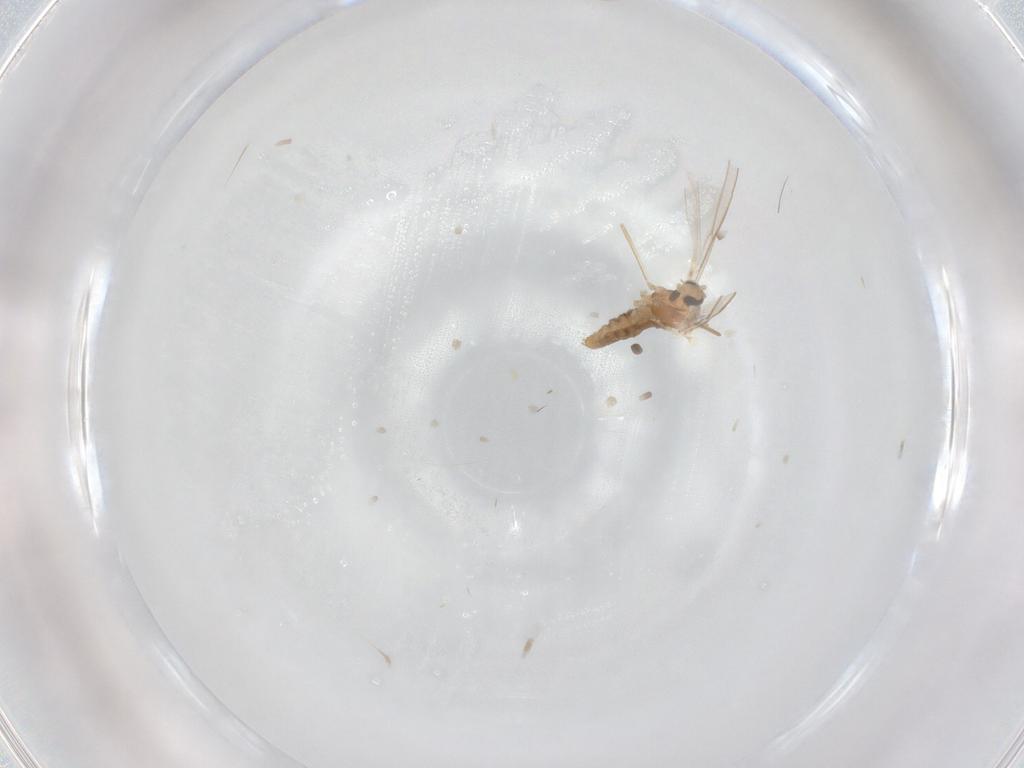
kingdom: Animalia
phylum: Arthropoda
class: Insecta
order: Diptera
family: Cecidomyiidae
